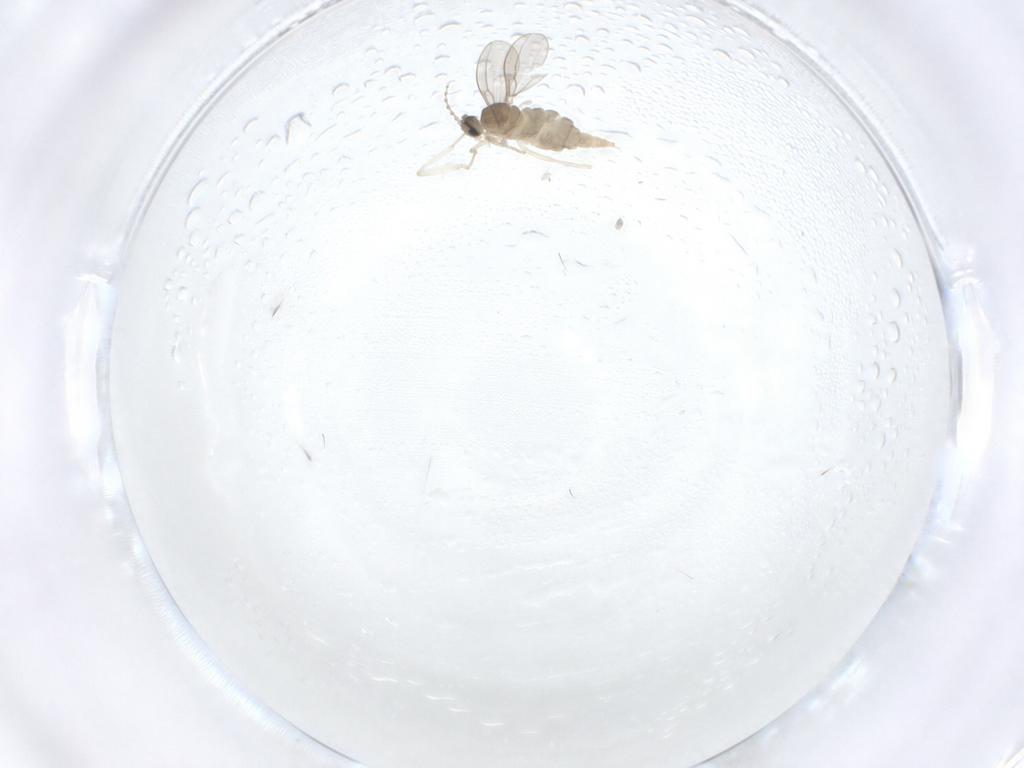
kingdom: Animalia
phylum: Arthropoda
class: Insecta
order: Diptera
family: Cecidomyiidae
